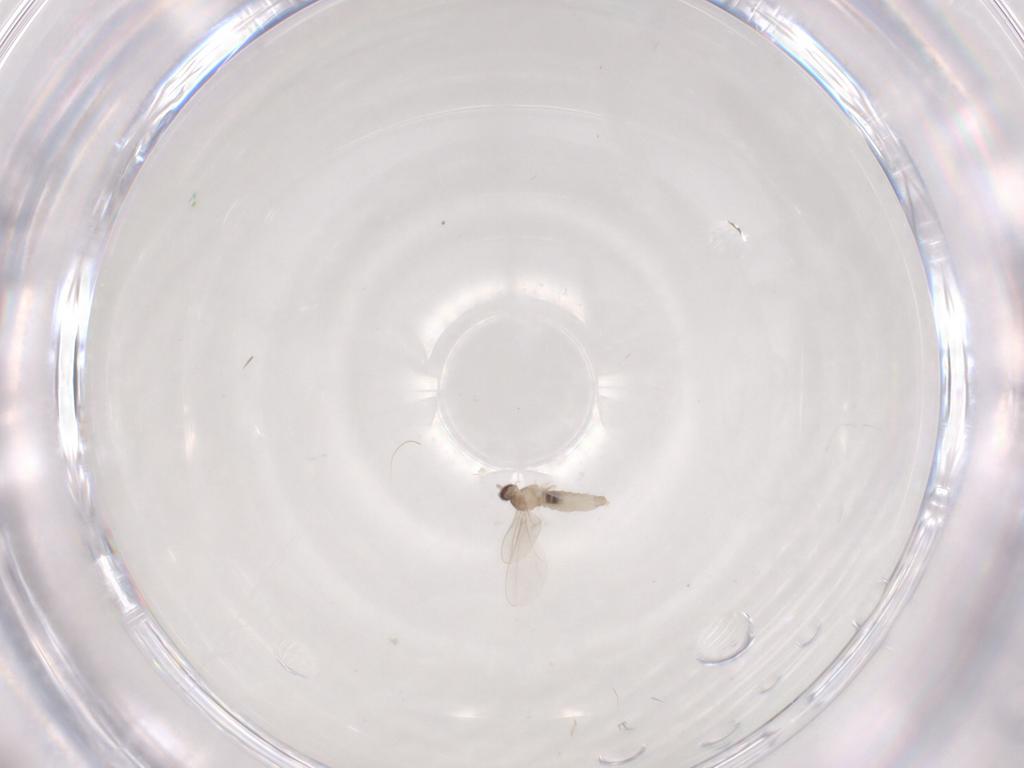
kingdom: Animalia
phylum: Arthropoda
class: Insecta
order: Diptera
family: Cecidomyiidae
